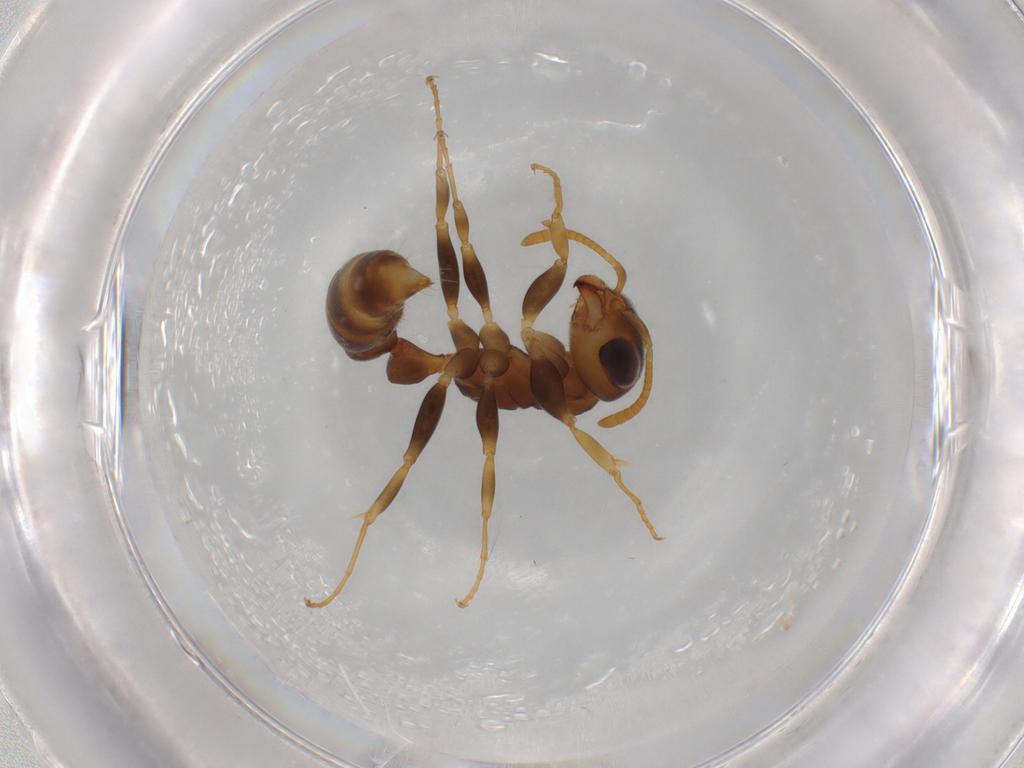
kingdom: Animalia
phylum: Arthropoda
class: Insecta
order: Hymenoptera
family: Formicidae
